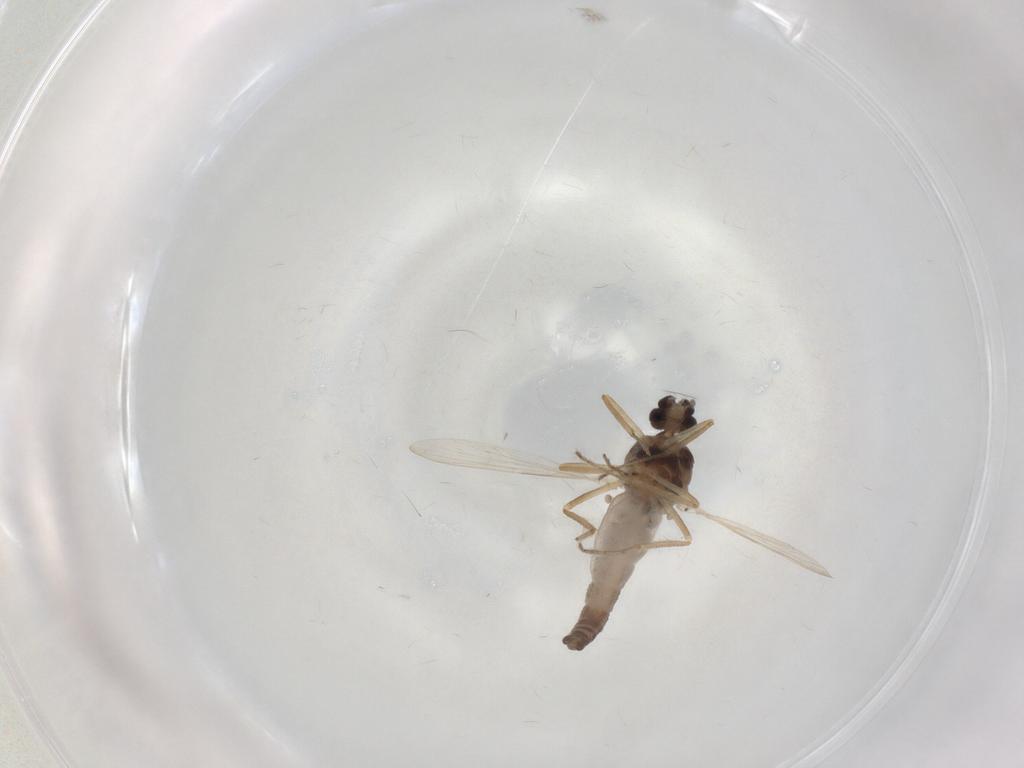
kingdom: Animalia
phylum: Arthropoda
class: Insecta
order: Diptera
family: Ceratopogonidae
